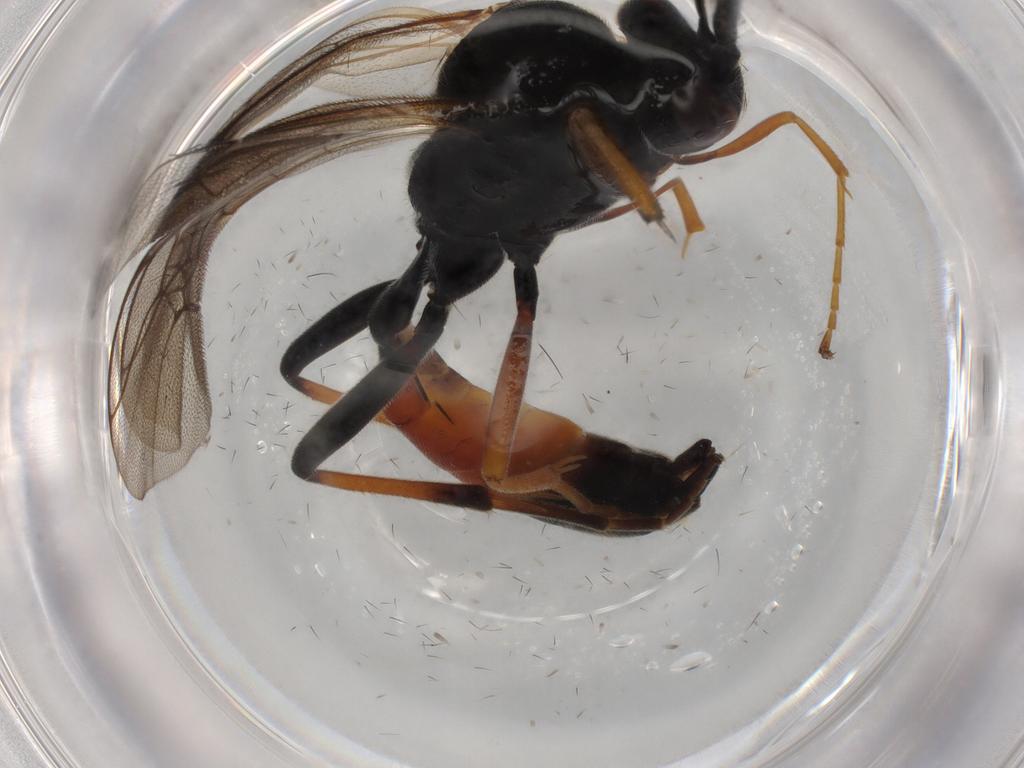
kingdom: Animalia
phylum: Arthropoda
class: Insecta
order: Hymenoptera
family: Ichneumonidae
